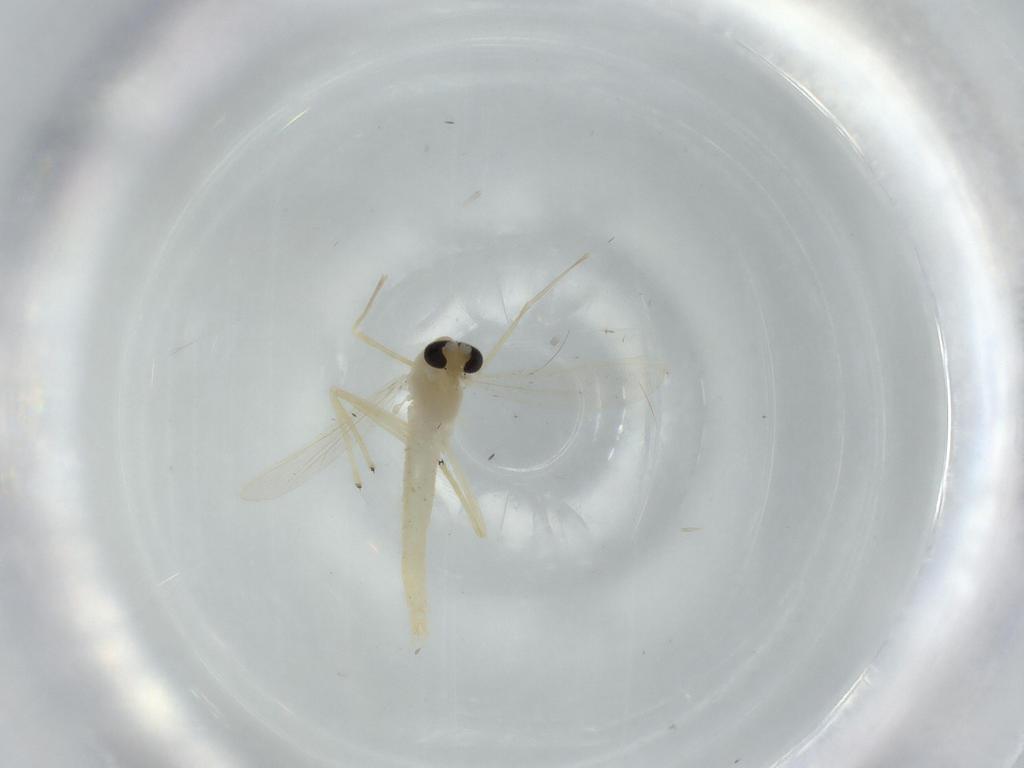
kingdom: Animalia
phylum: Arthropoda
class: Insecta
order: Diptera
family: Chironomidae
